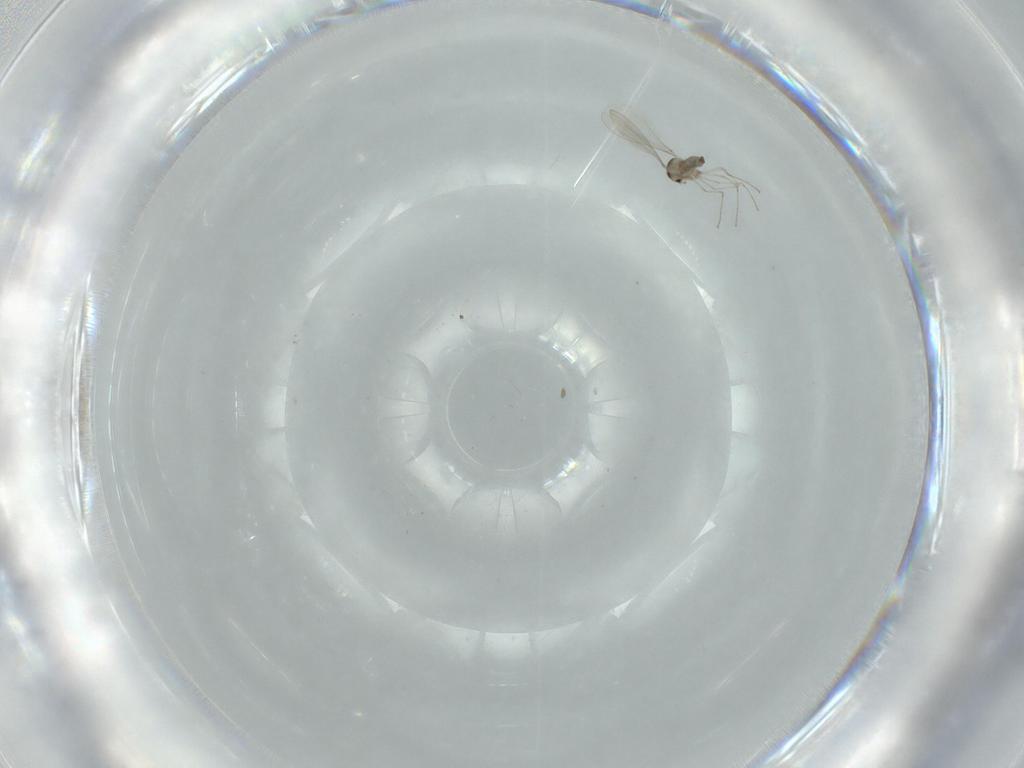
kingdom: Animalia
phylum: Arthropoda
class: Insecta
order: Diptera
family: Cecidomyiidae
